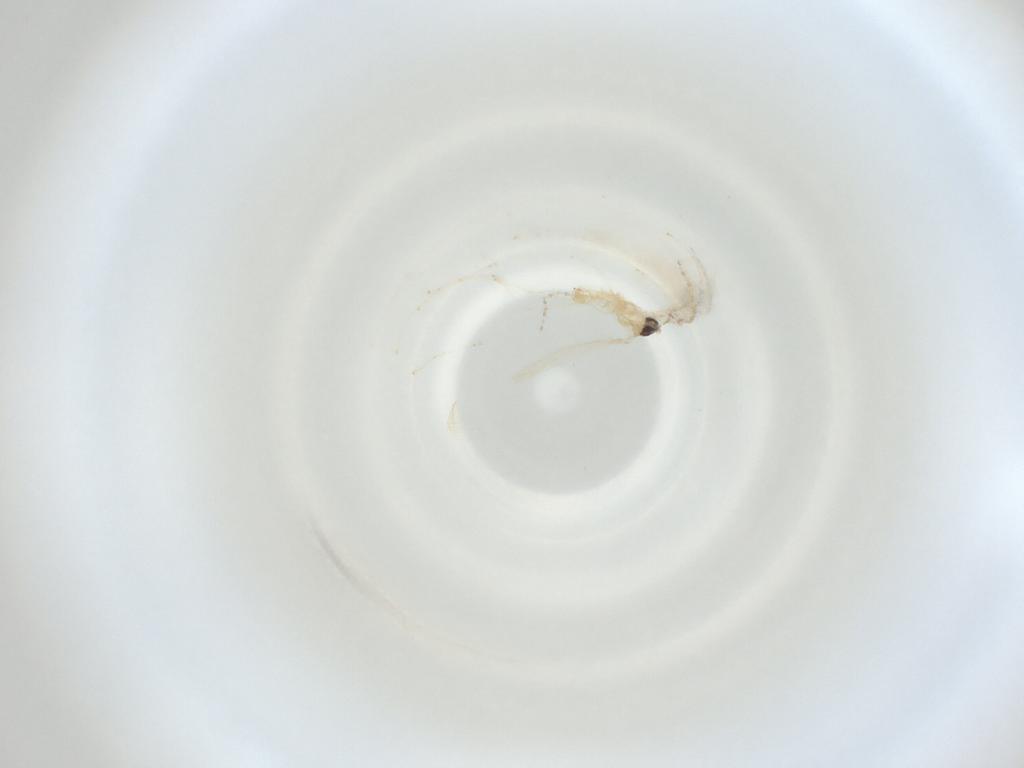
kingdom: Animalia
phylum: Arthropoda
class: Insecta
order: Diptera
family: Cecidomyiidae
